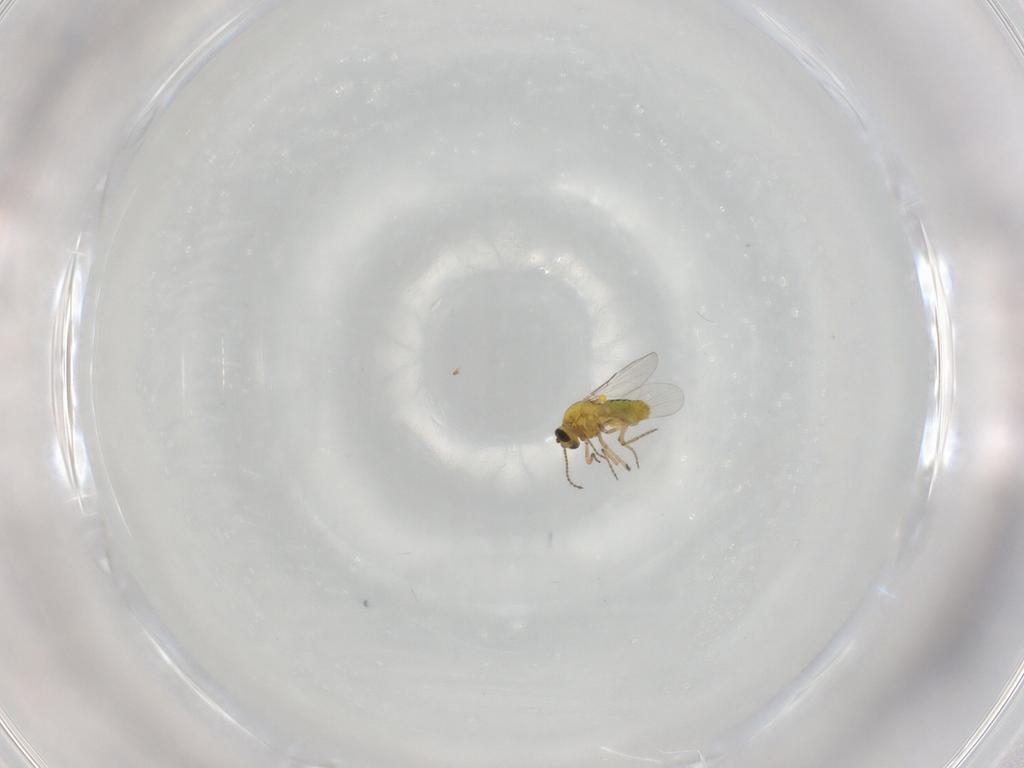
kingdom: Animalia
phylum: Arthropoda
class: Insecta
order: Diptera
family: Ceratopogonidae
